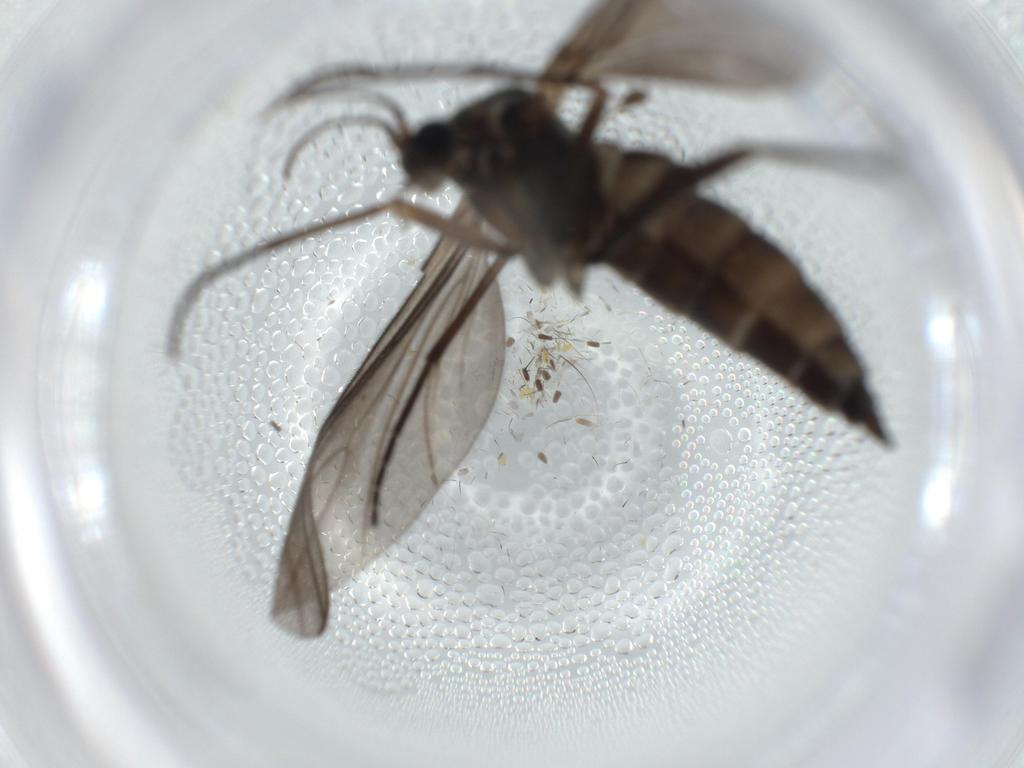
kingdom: Animalia
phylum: Arthropoda
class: Insecta
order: Diptera
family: Sciaridae
